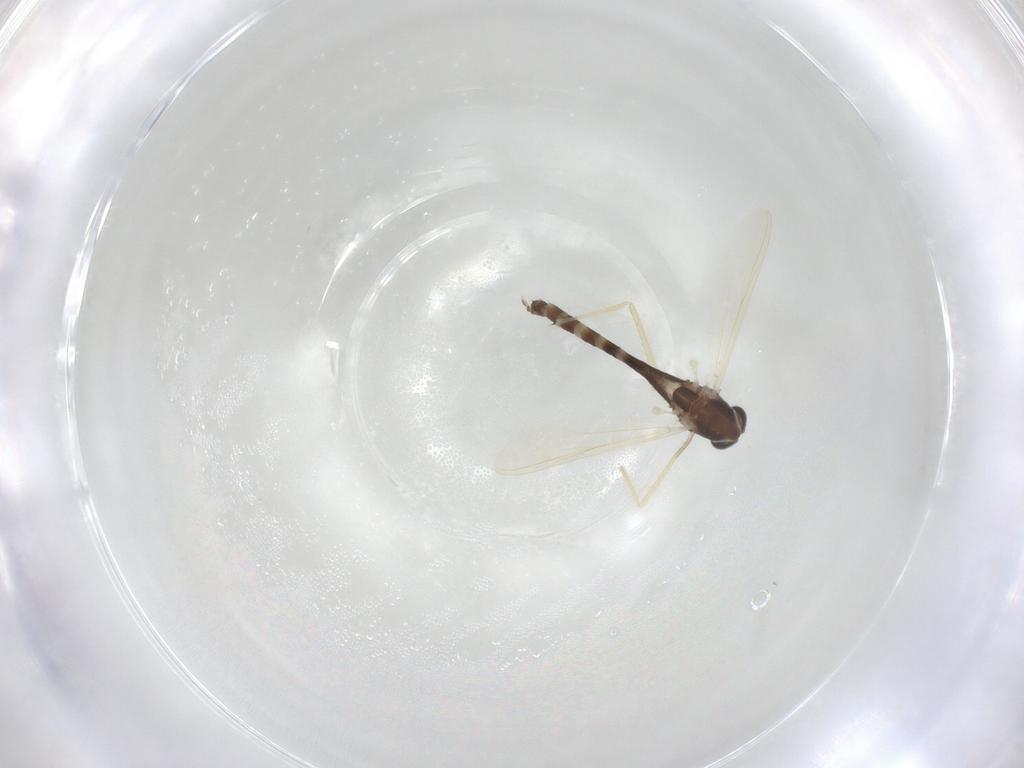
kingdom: Animalia
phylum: Arthropoda
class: Insecta
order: Diptera
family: Chironomidae
